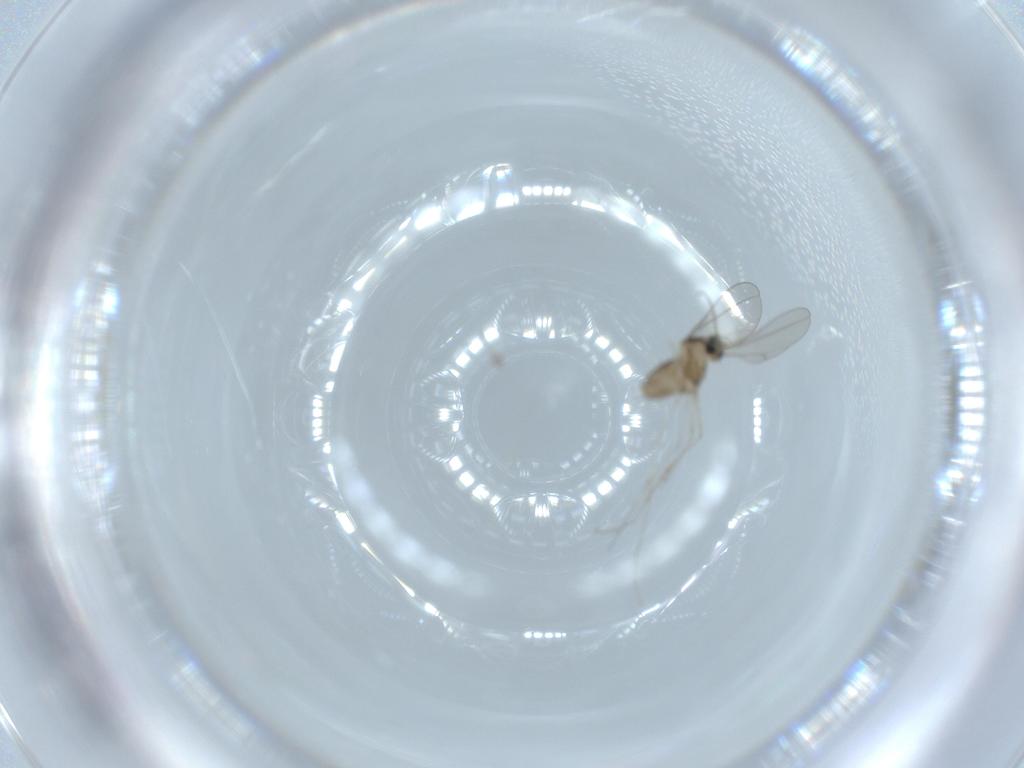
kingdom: Animalia
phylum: Arthropoda
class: Insecta
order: Diptera
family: Cecidomyiidae
